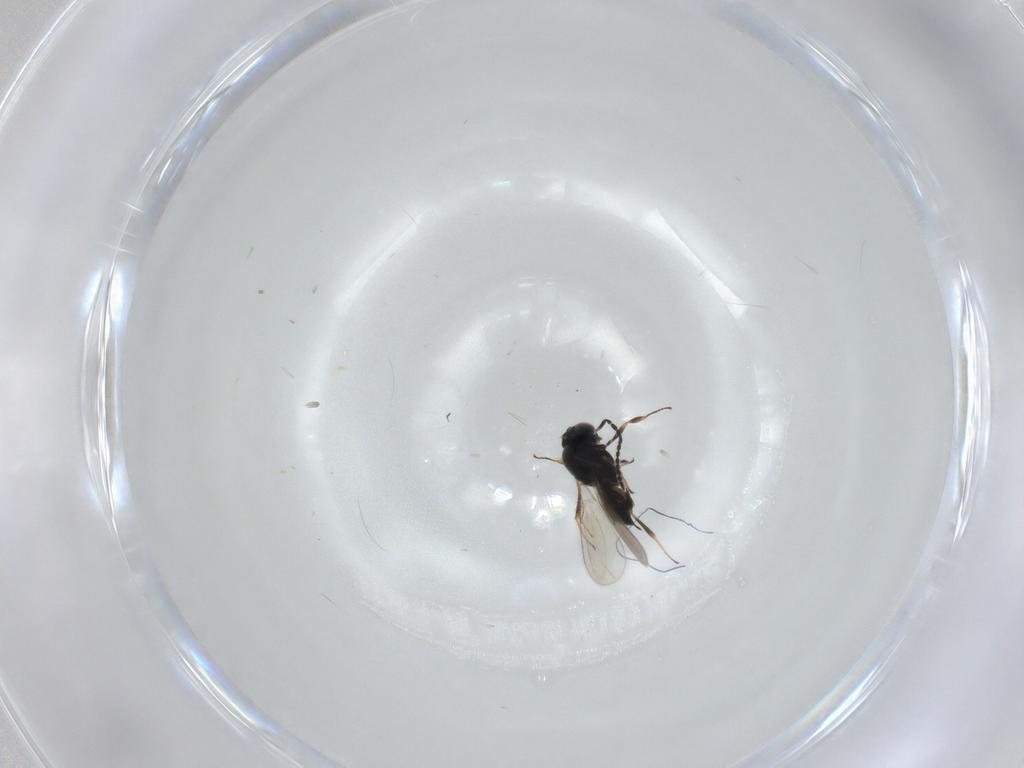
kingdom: Animalia
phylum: Arthropoda
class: Insecta
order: Hymenoptera
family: Scelionidae
